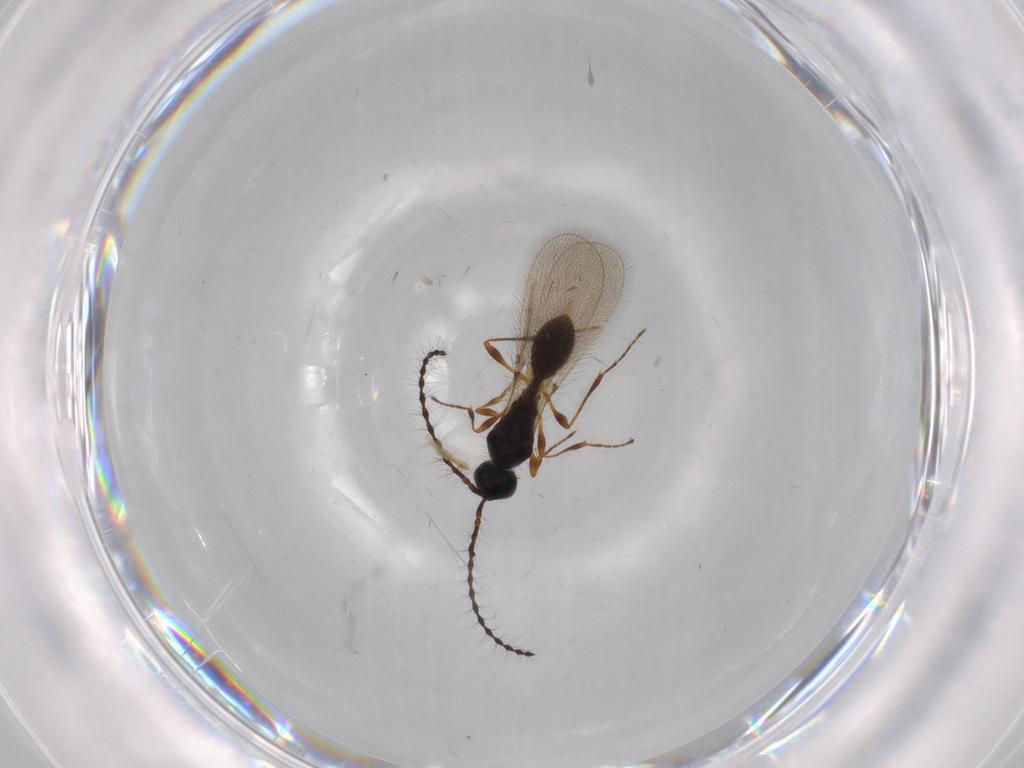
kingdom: Animalia
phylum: Arthropoda
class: Insecta
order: Hymenoptera
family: Diapriidae
